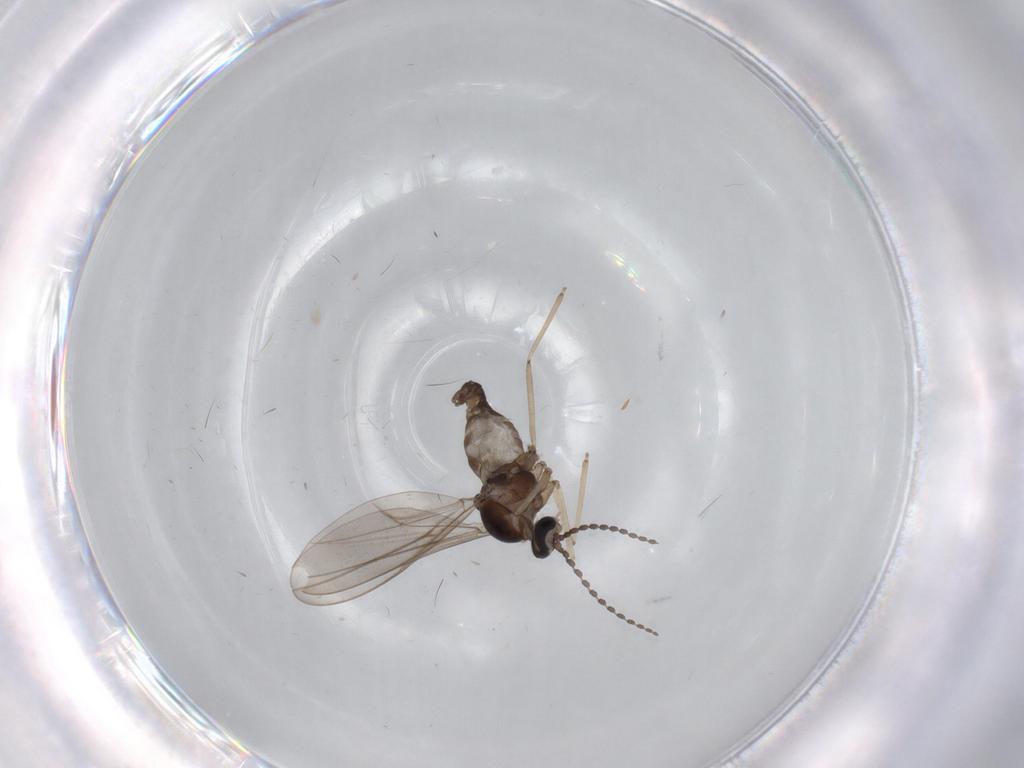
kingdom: Animalia
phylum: Arthropoda
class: Insecta
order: Diptera
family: Cecidomyiidae
